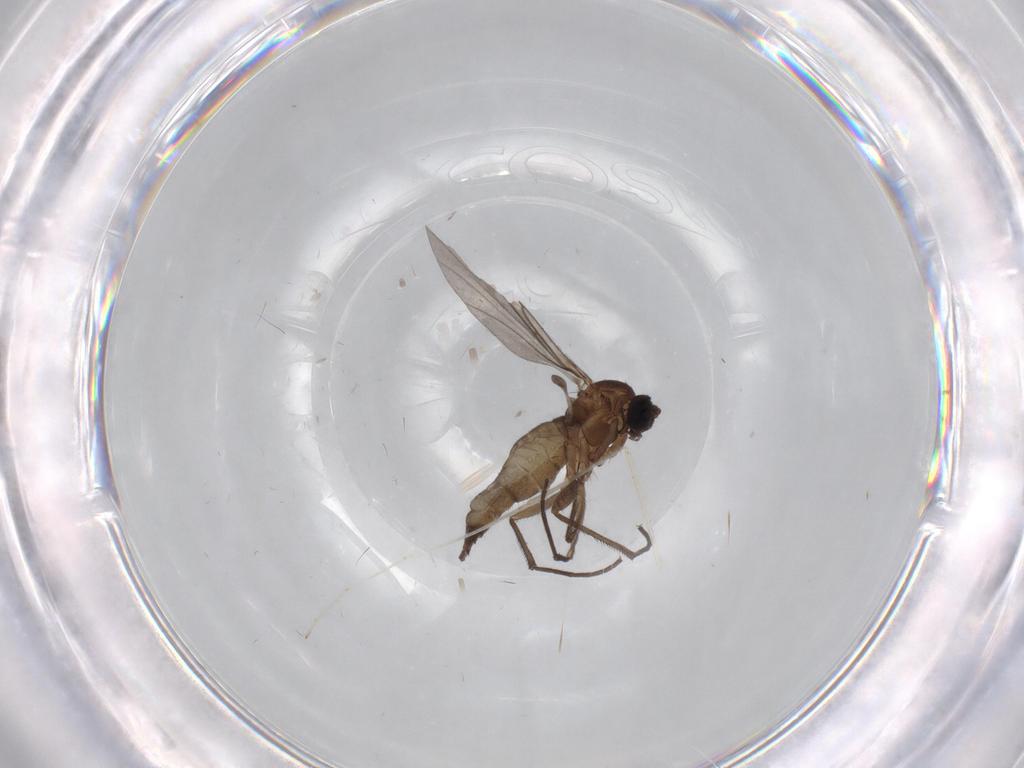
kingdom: Animalia
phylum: Arthropoda
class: Insecta
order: Diptera
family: Sciaridae
